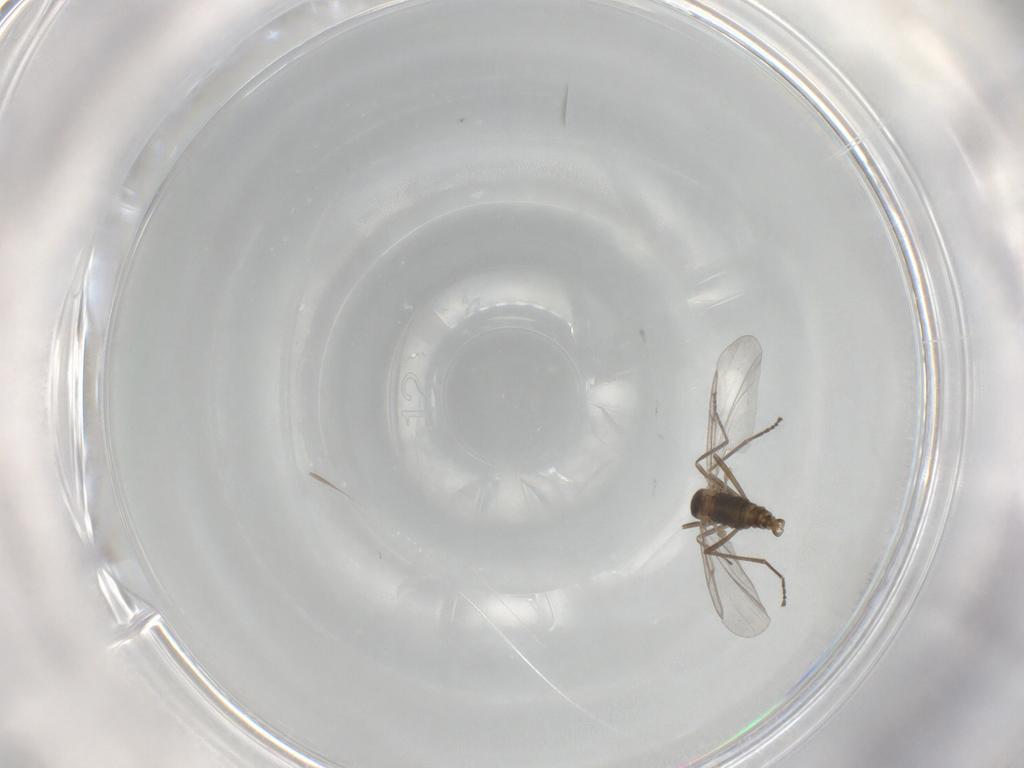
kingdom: Animalia
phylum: Arthropoda
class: Insecta
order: Diptera
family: Cecidomyiidae
